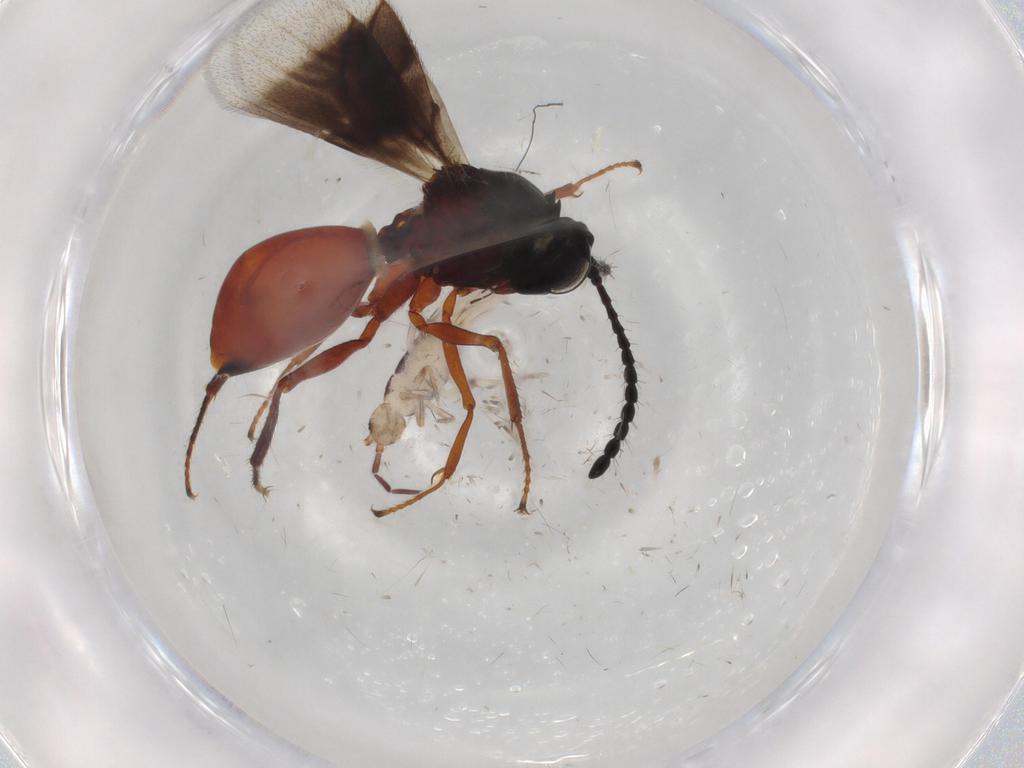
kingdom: Animalia
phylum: Arthropoda
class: Insecta
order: Hymenoptera
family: Figitidae
